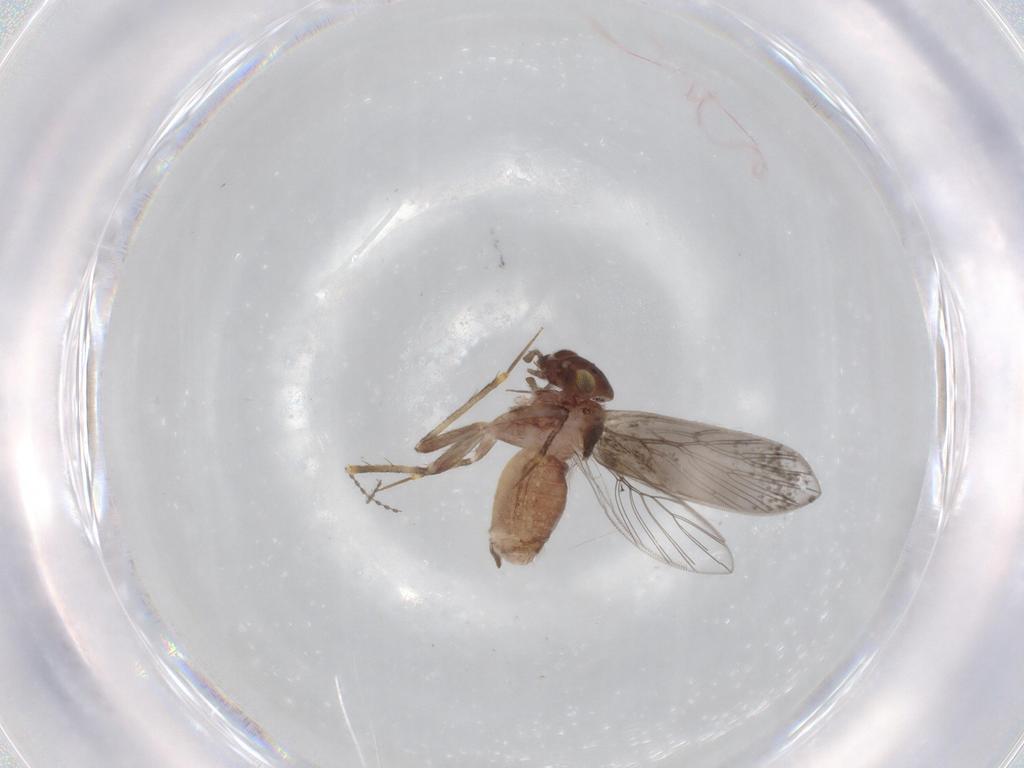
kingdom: Animalia
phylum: Arthropoda
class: Insecta
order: Psocodea
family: Lepidopsocidae
